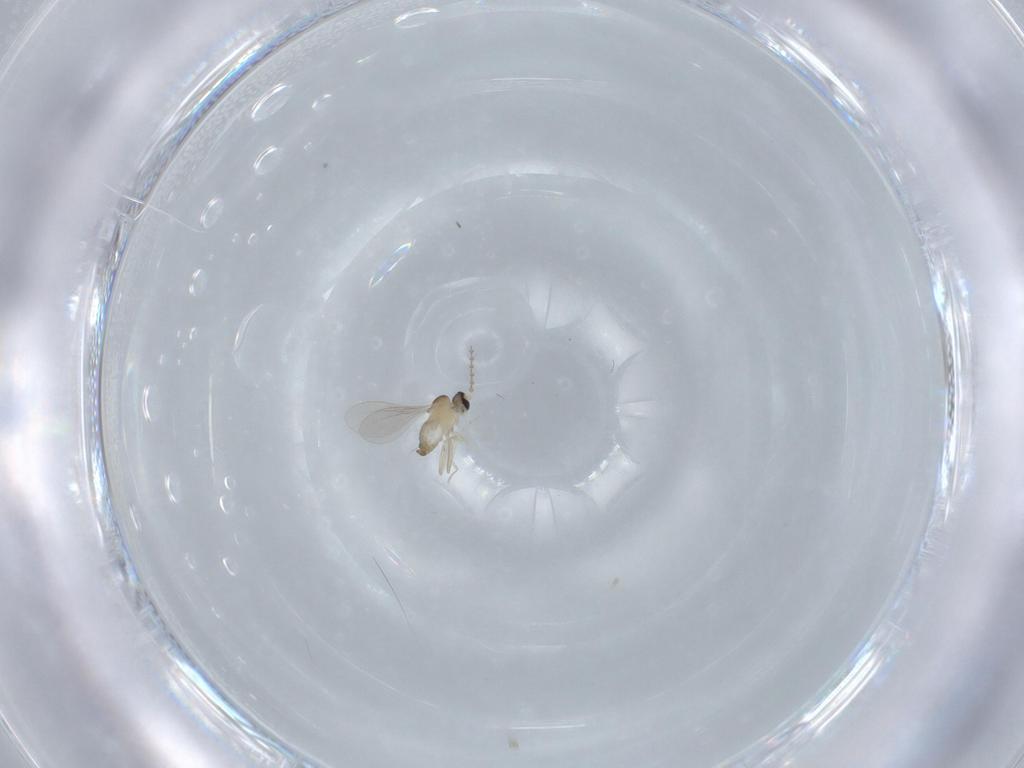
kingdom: Animalia
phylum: Arthropoda
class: Insecta
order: Diptera
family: Cecidomyiidae
